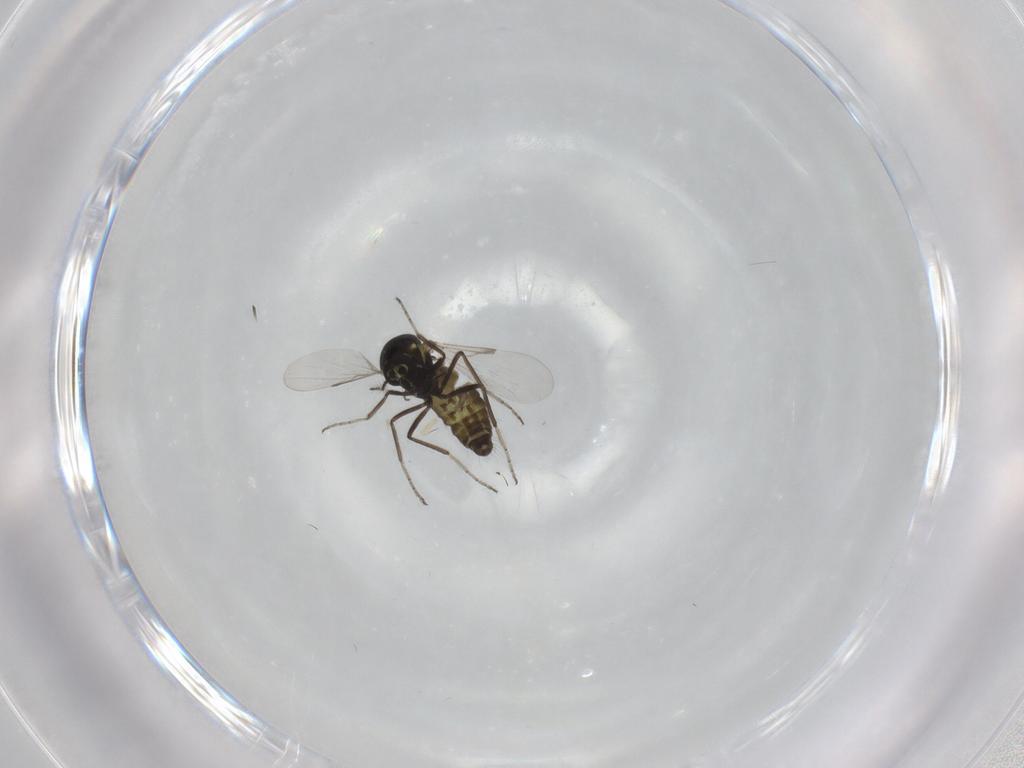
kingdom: Animalia
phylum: Arthropoda
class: Insecta
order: Diptera
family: Ceratopogonidae
